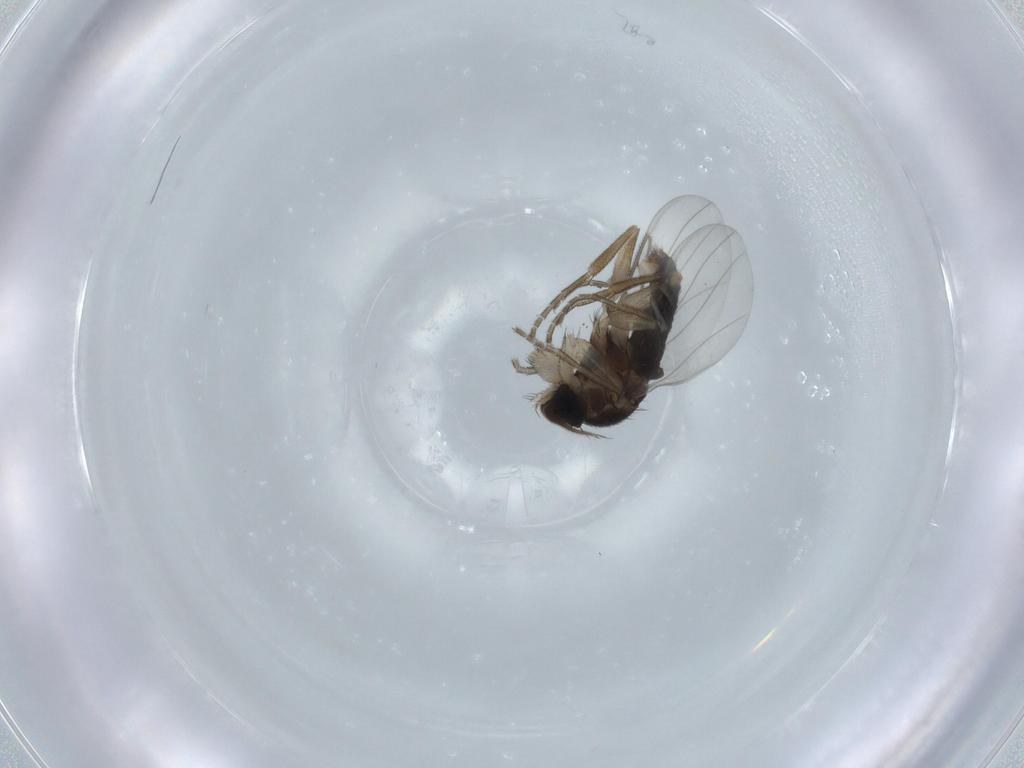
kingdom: Animalia
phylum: Arthropoda
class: Insecta
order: Diptera
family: Phoridae
